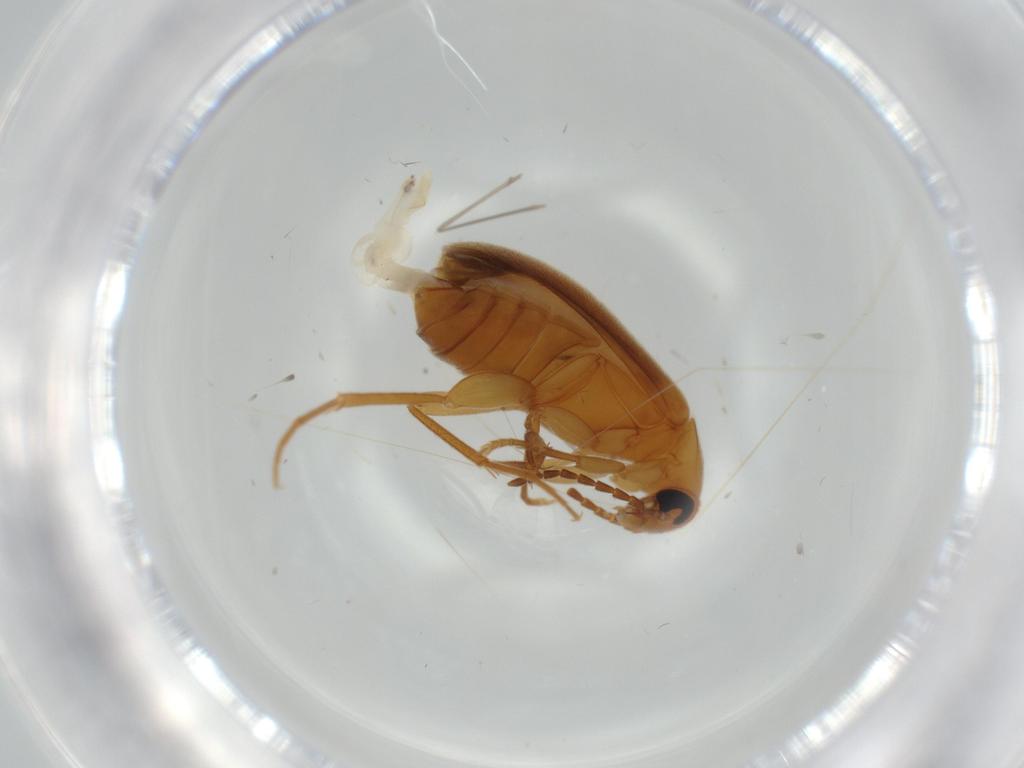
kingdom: Animalia
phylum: Arthropoda
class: Insecta
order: Coleoptera
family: Scraptiidae
